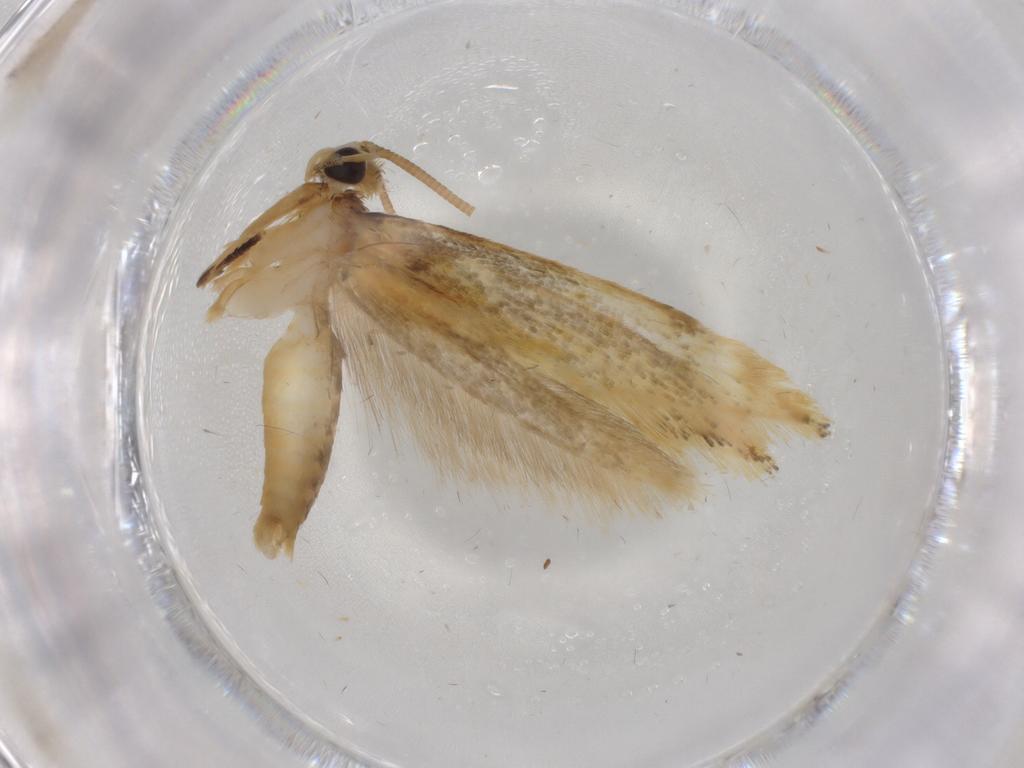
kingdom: Animalia
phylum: Arthropoda
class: Insecta
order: Lepidoptera
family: Tineidae
